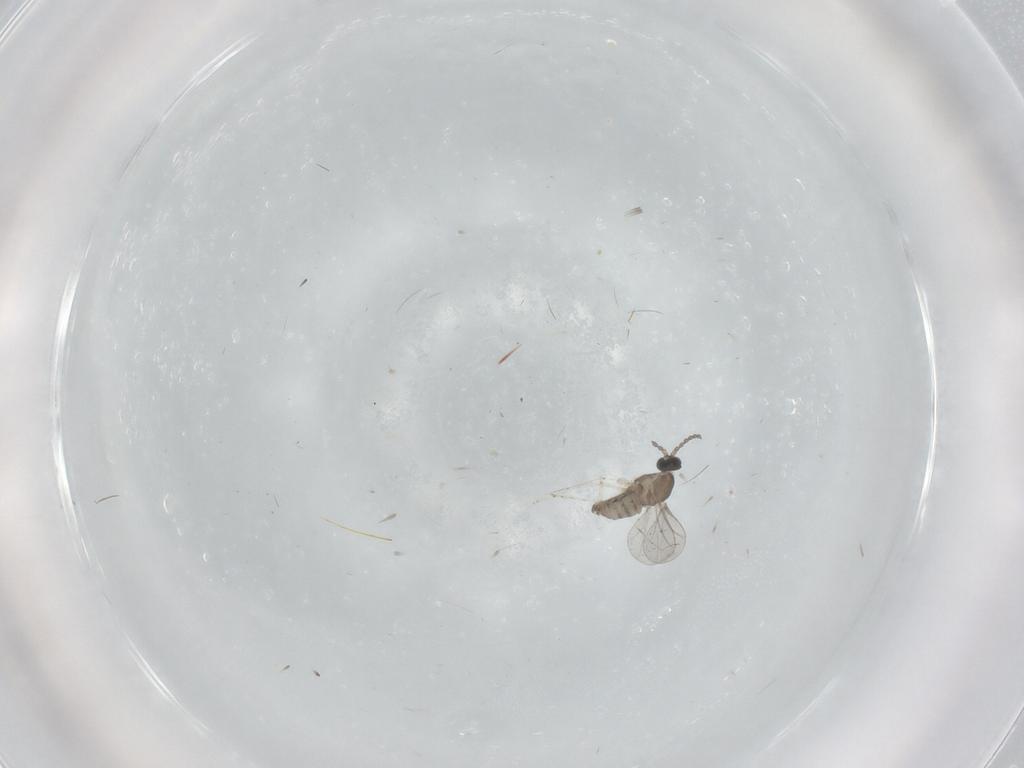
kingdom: Animalia
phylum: Arthropoda
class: Insecta
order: Diptera
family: Cecidomyiidae
